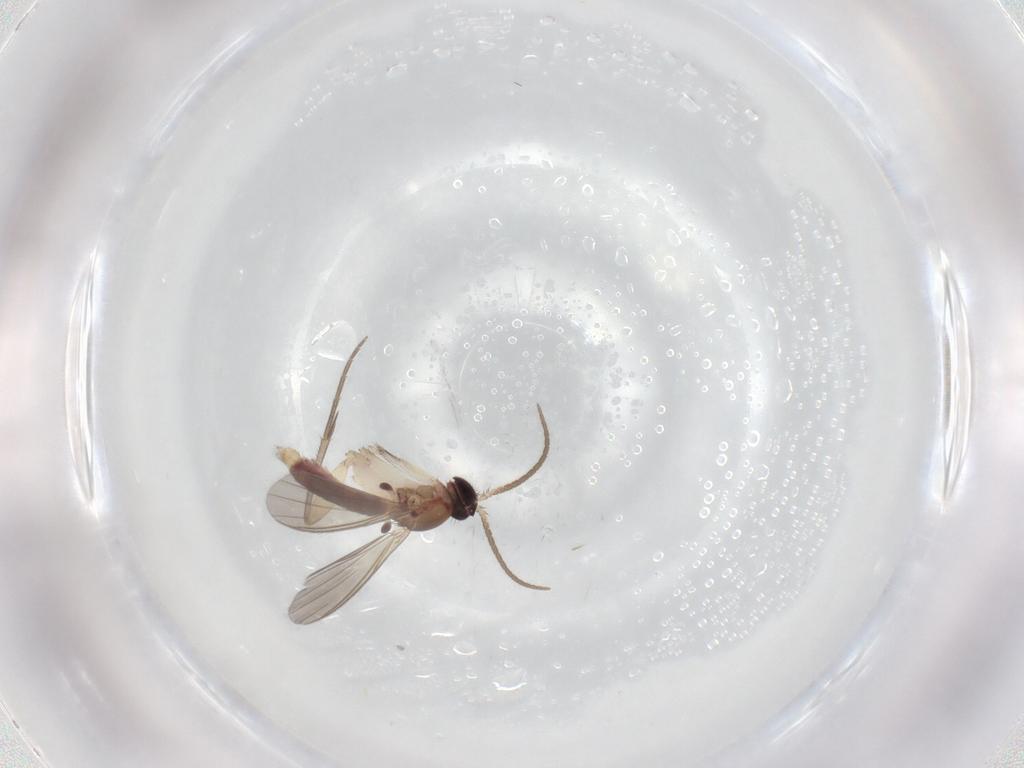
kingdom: Animalia
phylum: Arthropoda
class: Insecta
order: Diptera
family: Mycetophilidae
